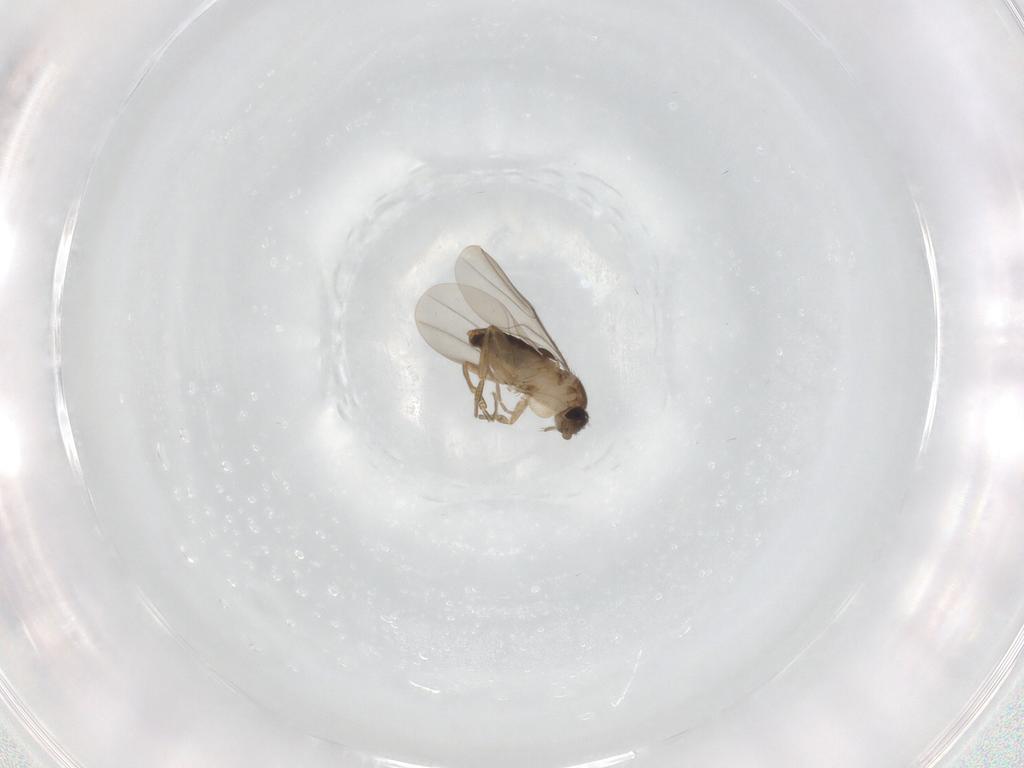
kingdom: Animalia
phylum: Arthropoda
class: Insecta
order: Diptera
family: Phoridae
